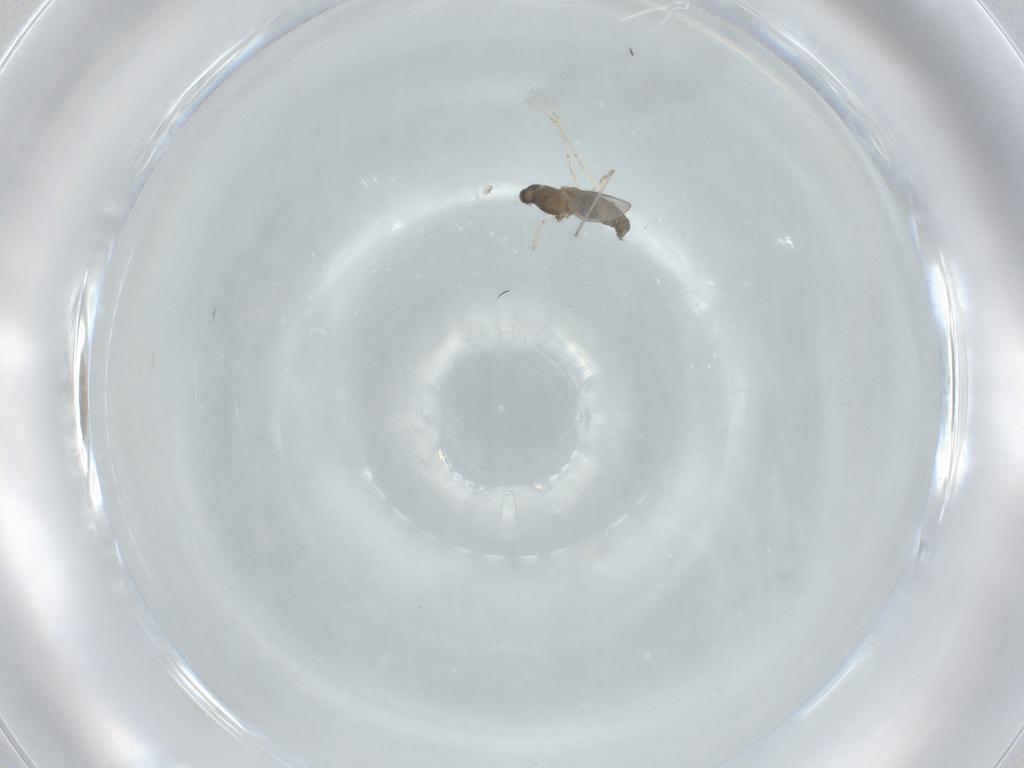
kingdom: Animalia
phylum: Arthropoda
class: Insecta
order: Diptera
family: Cecidomyiidae
